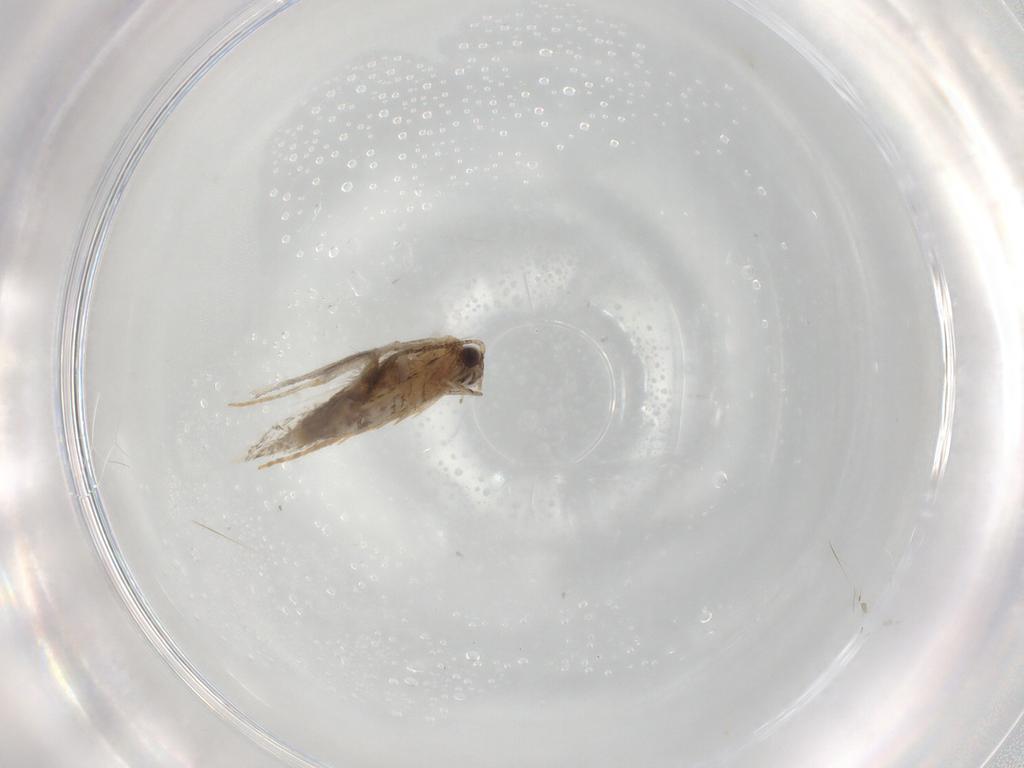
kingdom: Animalia
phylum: Arthropoda
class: Insecta
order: Lepidoptera
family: Tineidae
